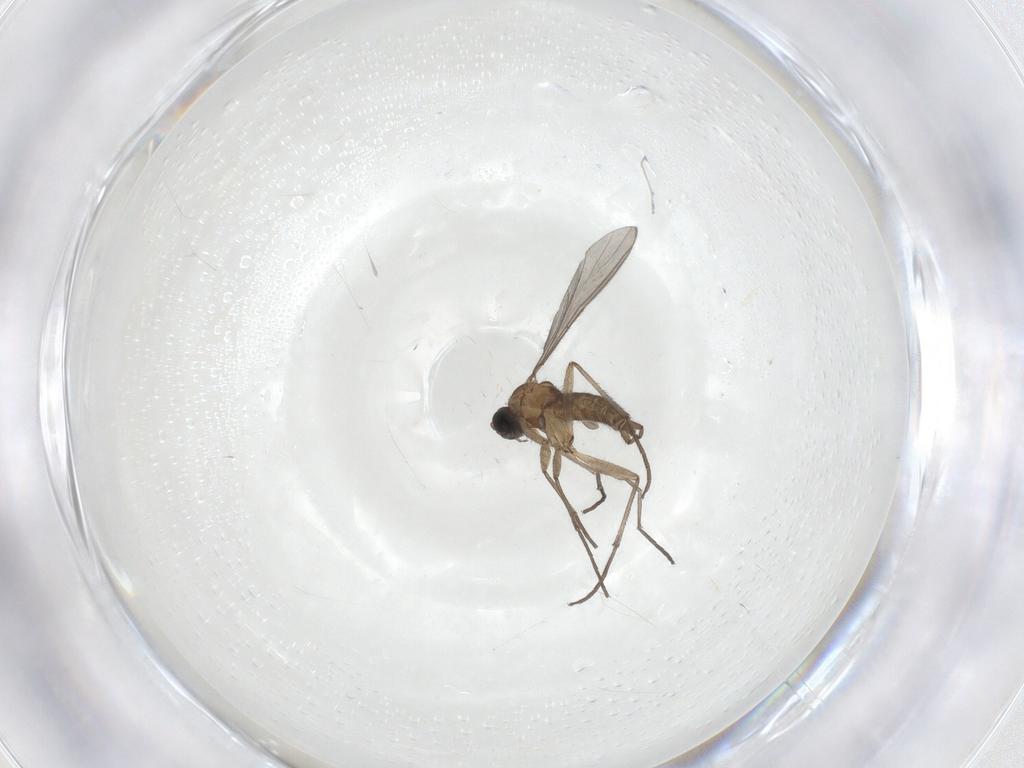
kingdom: Animalia
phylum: Arthropoda
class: Insecta
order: Diptera
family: Sciaridae
